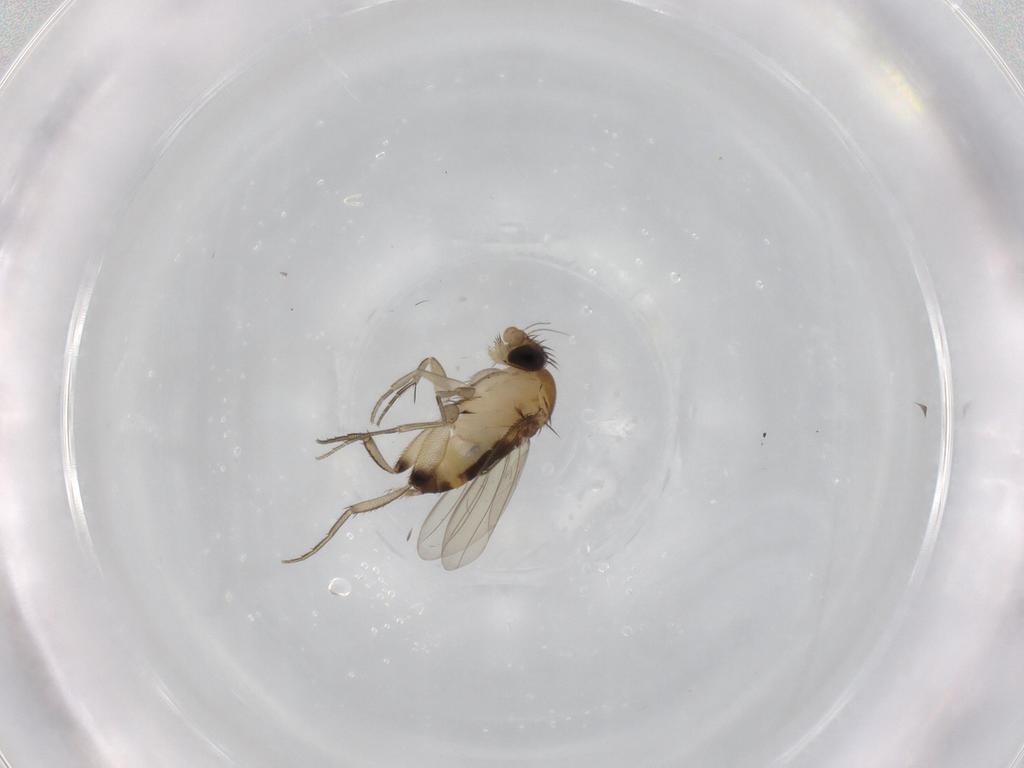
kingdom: Animalia
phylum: Arthropoda
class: Insecta
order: Diptera
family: Phoridae
